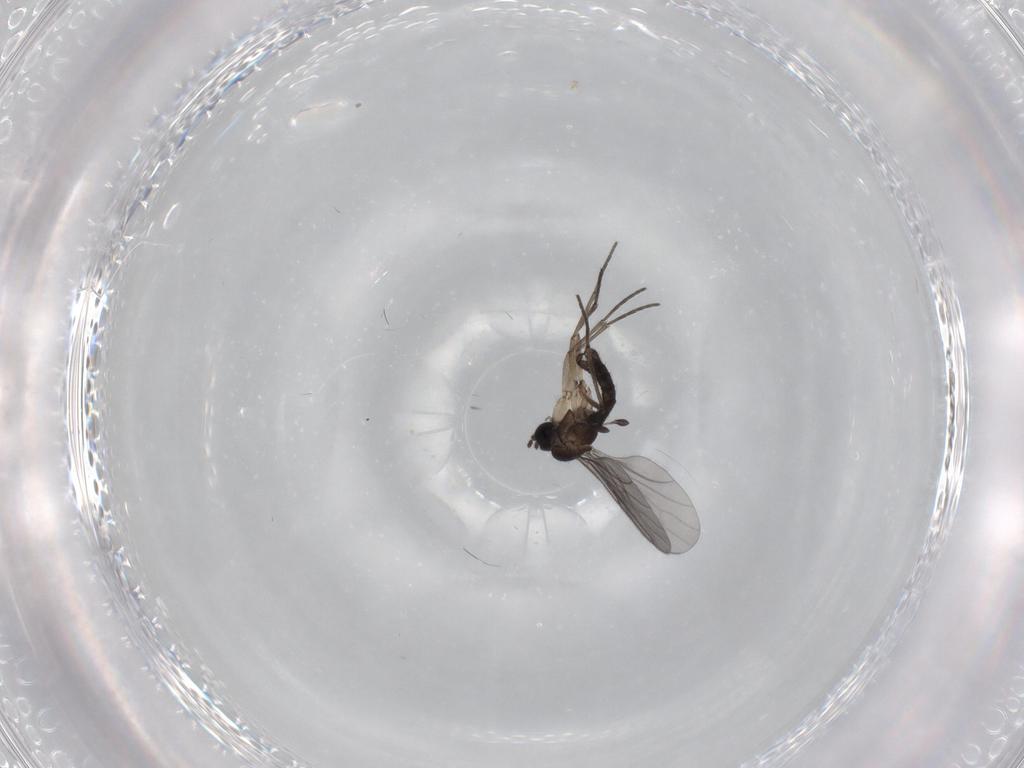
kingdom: Animalia
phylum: Arthropoda
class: Insecta
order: Diptera
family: Sciaridae
